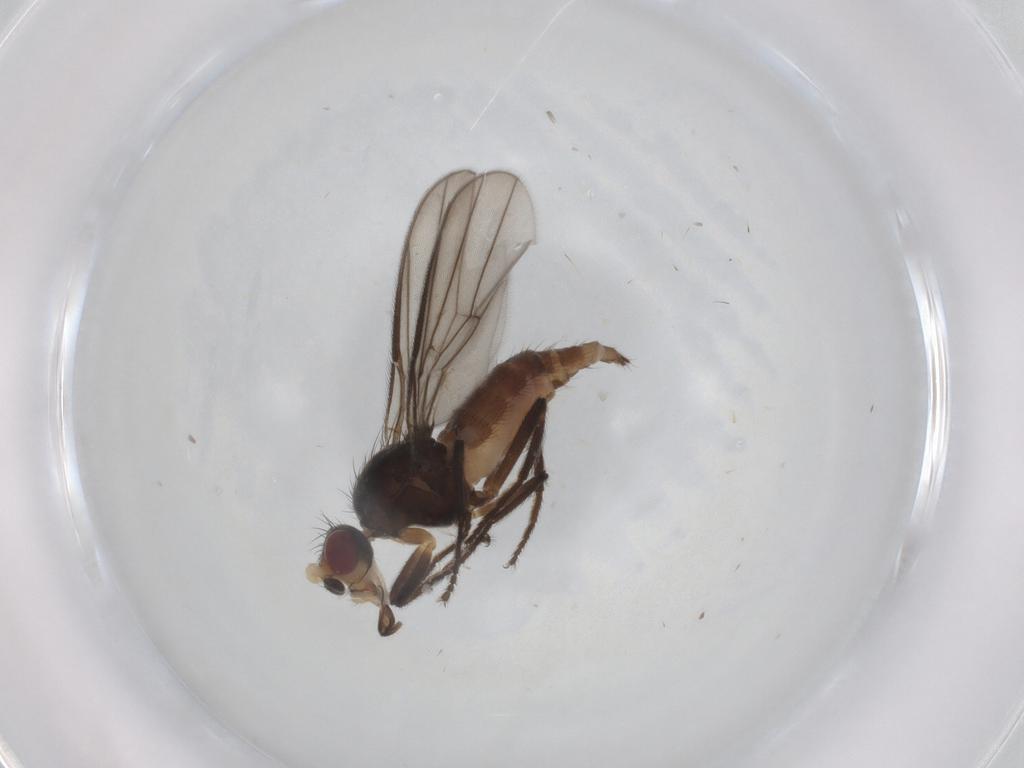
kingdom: Animalia
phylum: Arthropoda
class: Insecta
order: Diptera
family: Chloropidae
